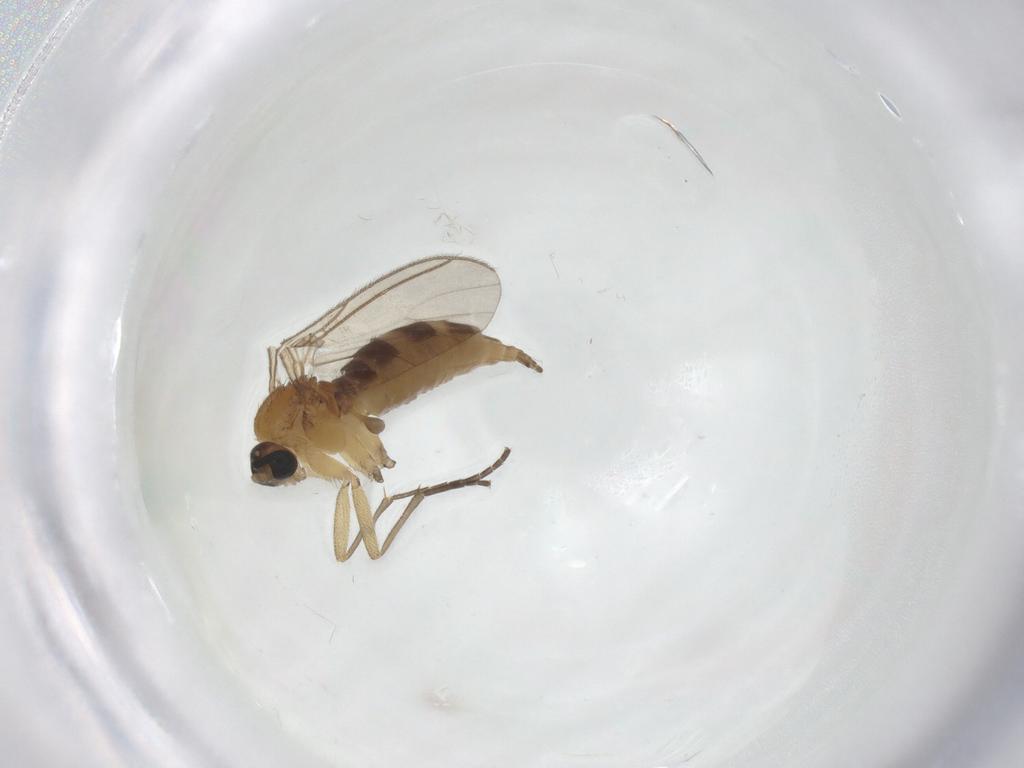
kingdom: Animalia
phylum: Arthropoda
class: Insecta
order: Diptera
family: Sciaridae
